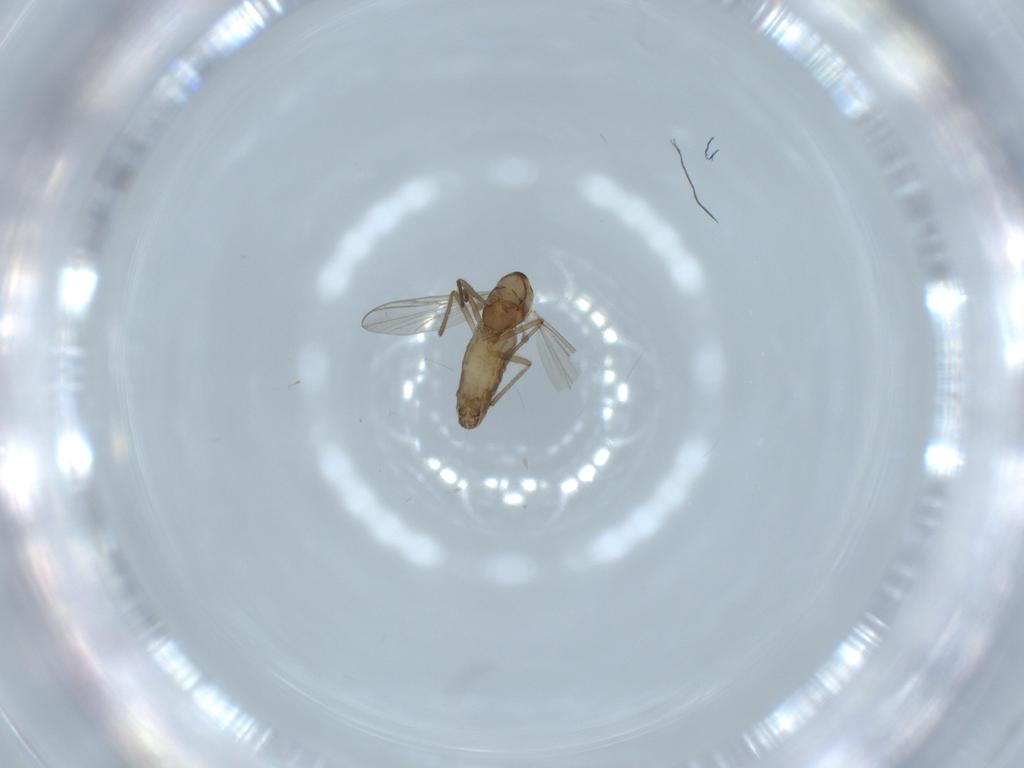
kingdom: Animalia
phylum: Arthropoda
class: Insecta
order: Diptera
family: Chironomidae
